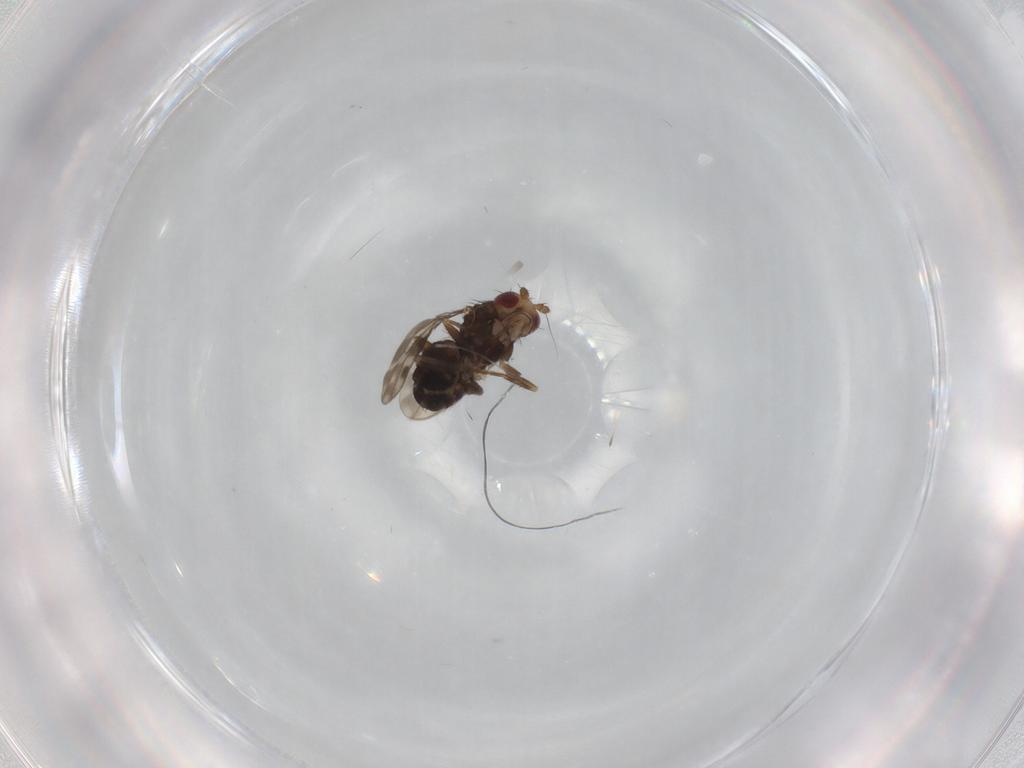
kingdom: Animalia
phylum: Arthropoda
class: Insecta
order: Diptera
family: Sphaeroceridae
